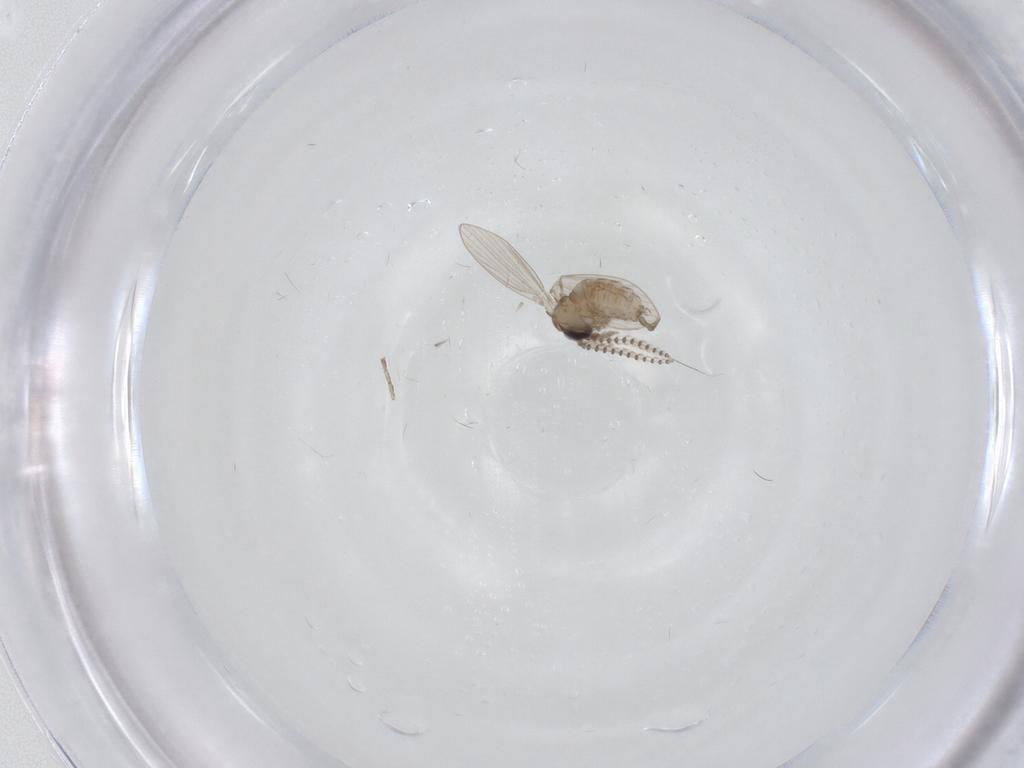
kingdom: Animalia
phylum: Arthropoda
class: Insecta
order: Diptera
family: Psychodidae
